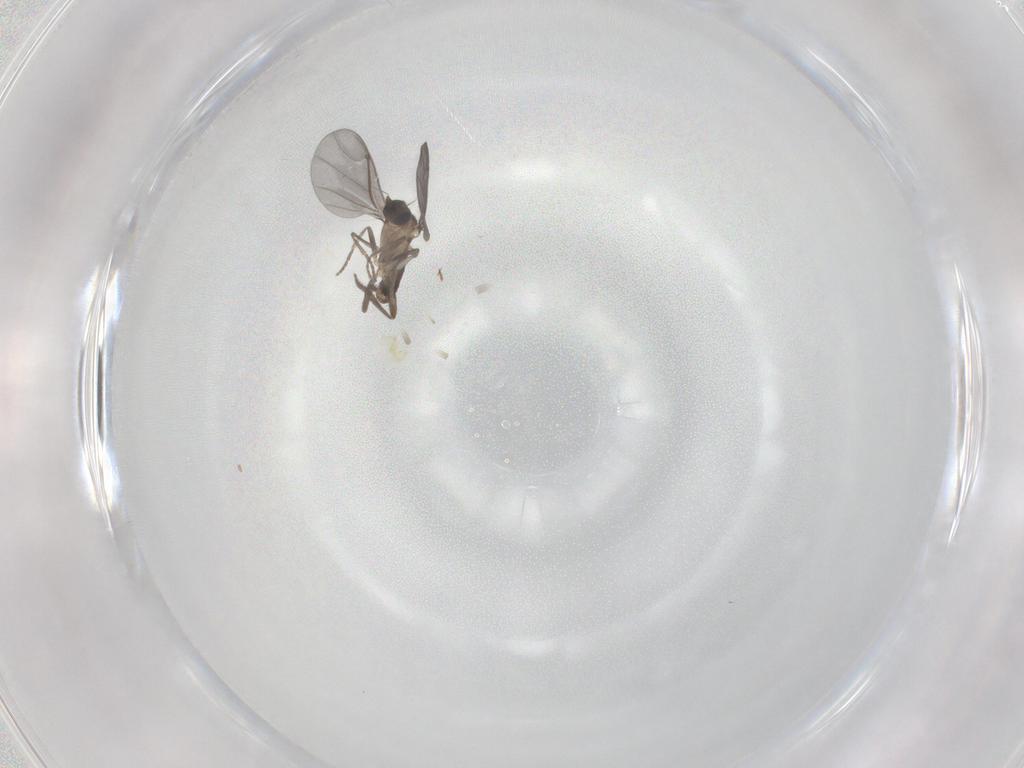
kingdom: Animalia
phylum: Arthropoda
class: Insecta
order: Diptera
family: Phoridae
